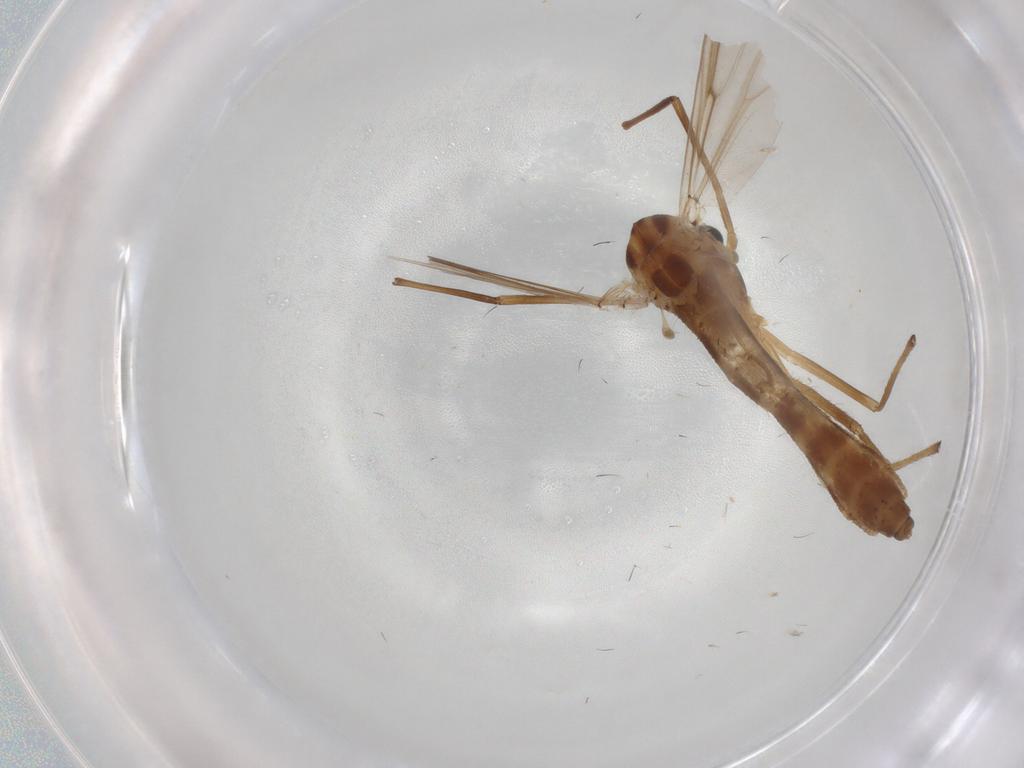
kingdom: Animalia
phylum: Arthropoda
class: Insecta
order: Diptera
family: Chironomidae
